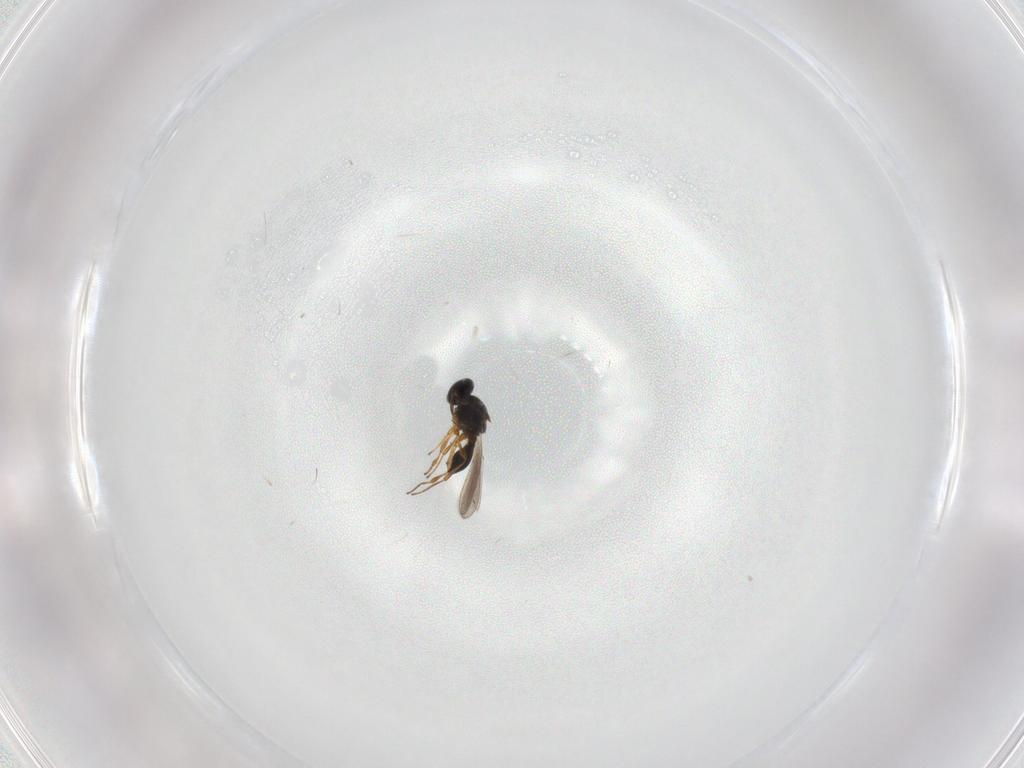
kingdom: Animalia
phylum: Arthropoda
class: Insecta
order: Hymenoptera
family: Platygastridae
